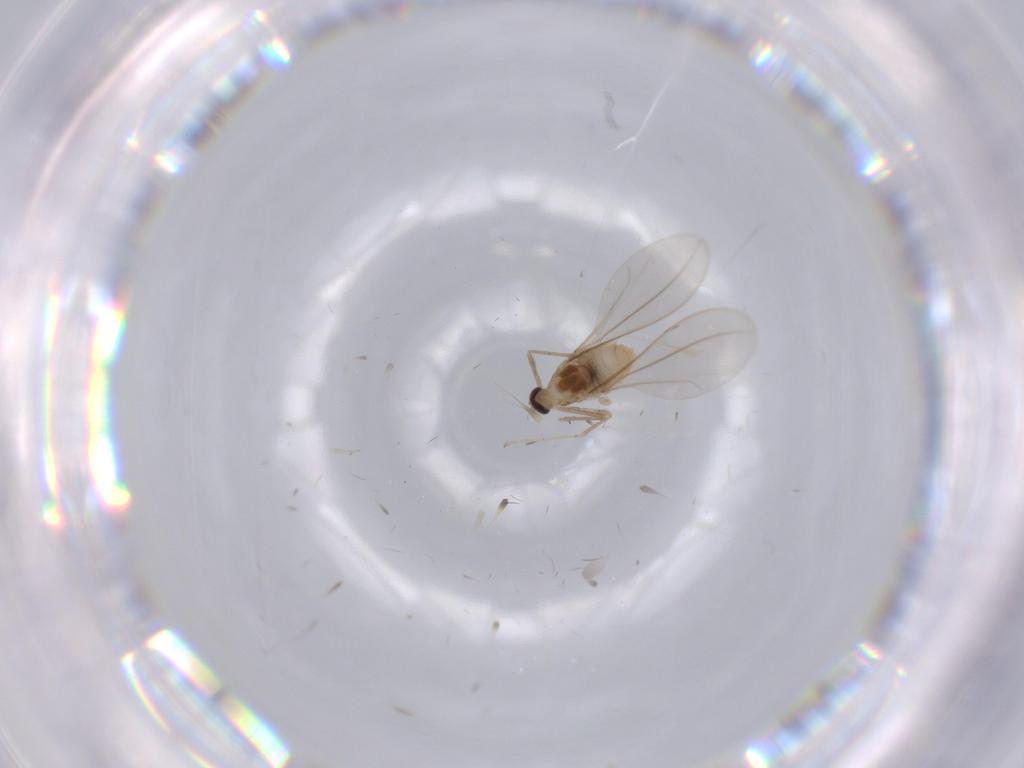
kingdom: Animalia
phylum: Arthropoda
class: Insecta
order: Diptera
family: Cecidomyiidae
